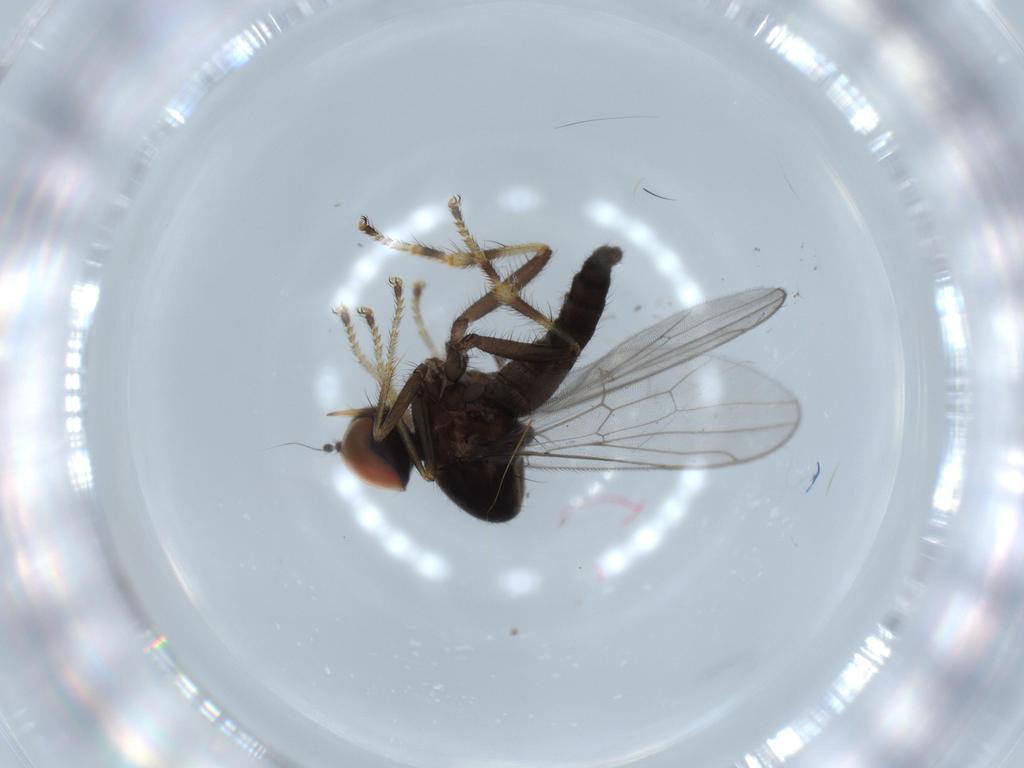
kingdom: Animalia
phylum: Arthropoda
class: Insecta
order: Diptera
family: Hybotidae
